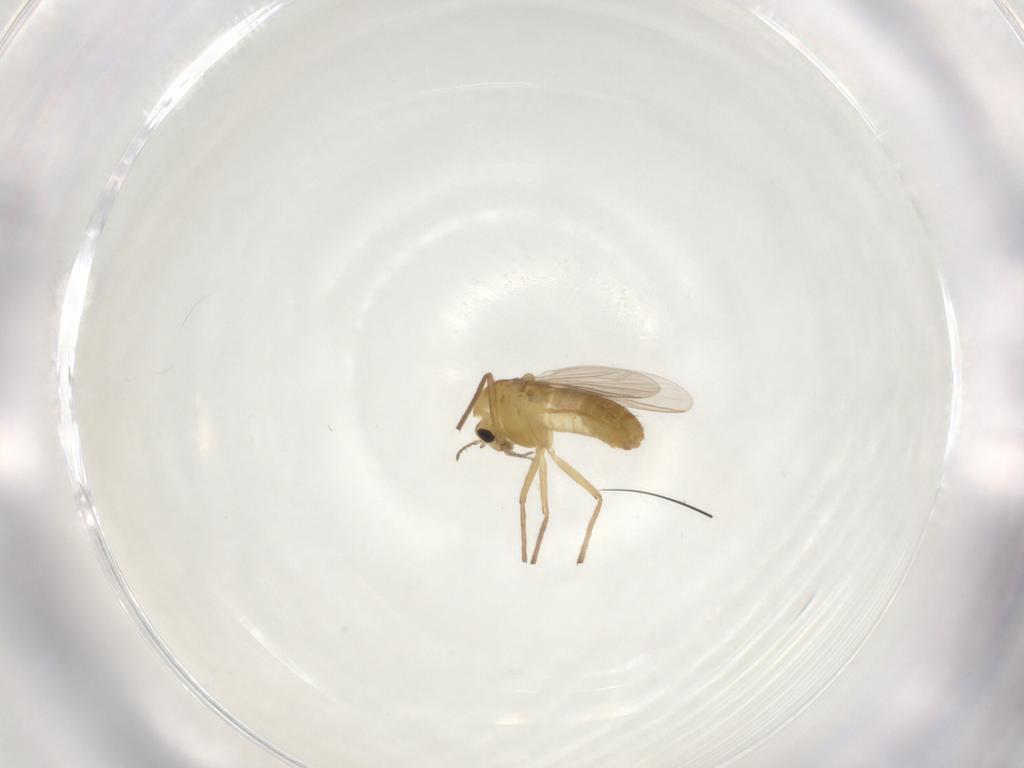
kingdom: Animalia
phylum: Arthropoda
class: Insecta
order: Diptera
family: Chironomidae
